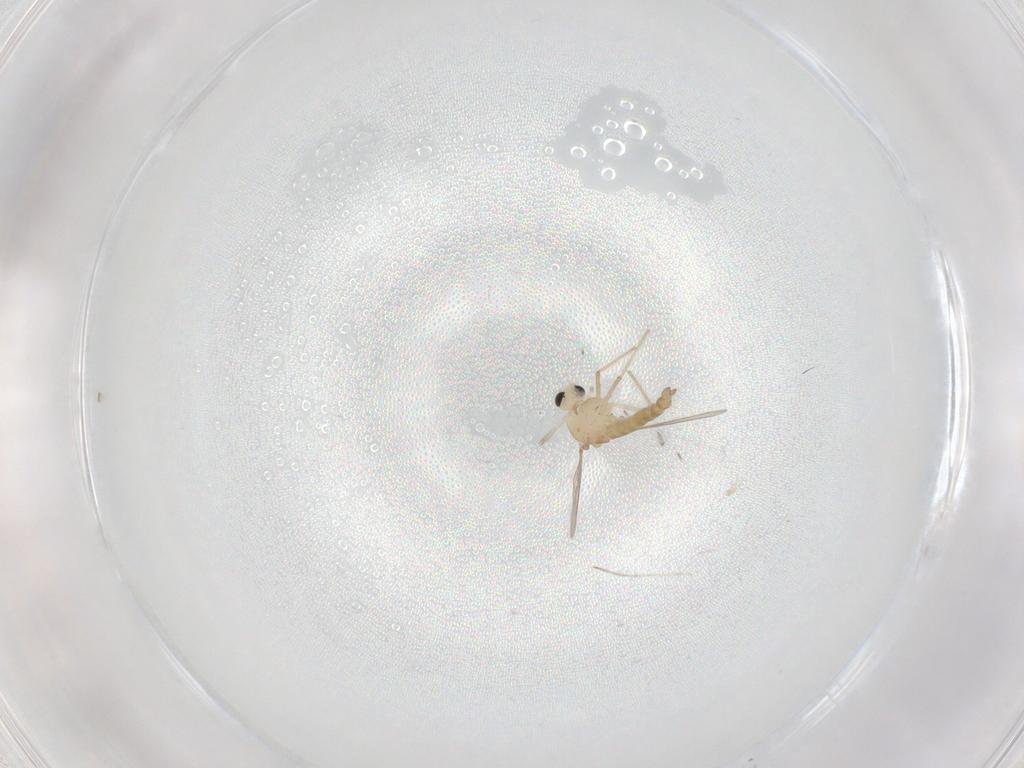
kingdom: Animalia
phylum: Arthropoda
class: Insecta
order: Diptera
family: Chironomidae
